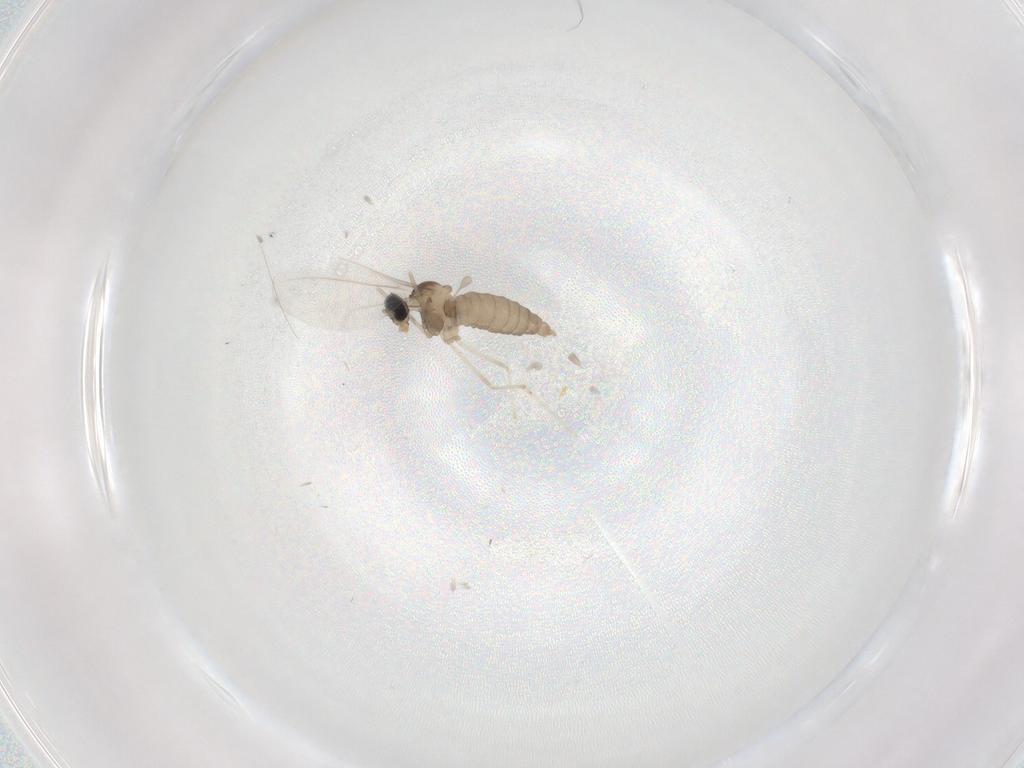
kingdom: Animalia
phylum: Arthropoda
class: Insecta
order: Diptera
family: Cecidomyiidae
